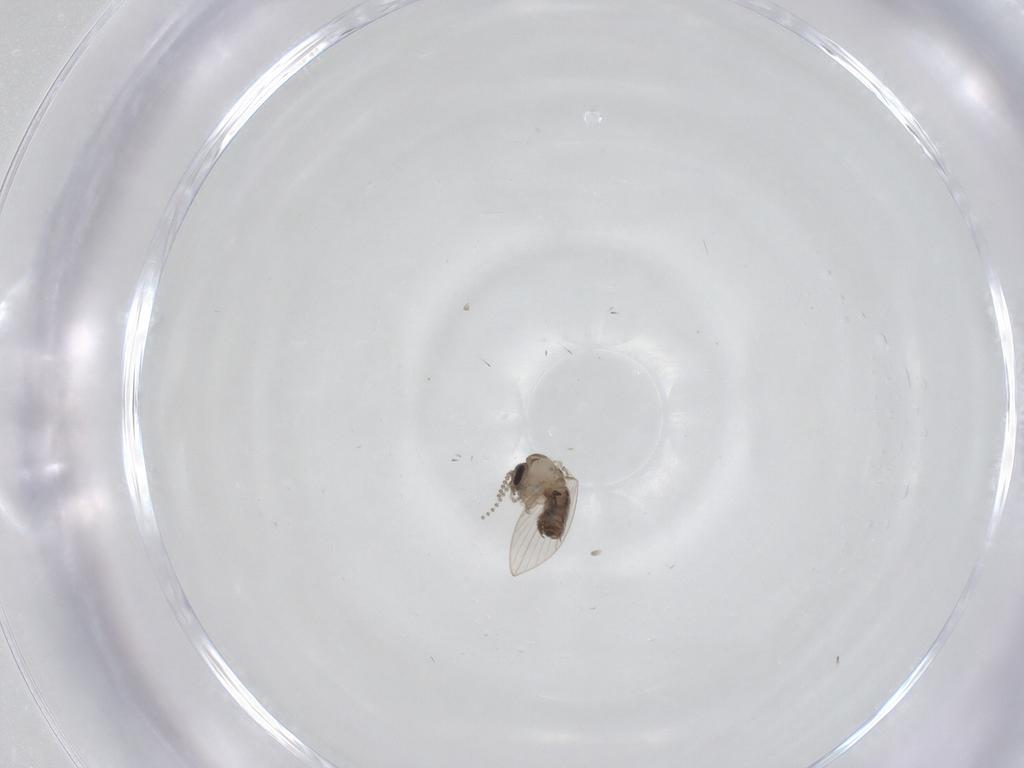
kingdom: Animalia
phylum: Arthropoda
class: Insecta
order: Diptera
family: Psychodidae
